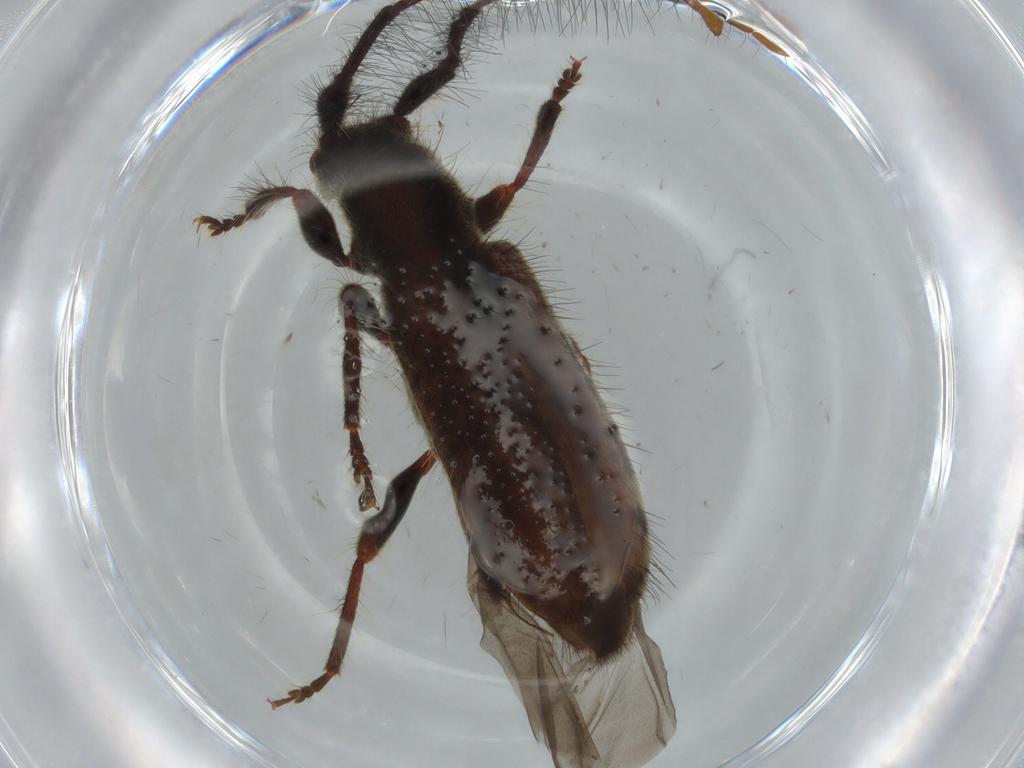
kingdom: Animalia
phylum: Arthropoda
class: Insecta
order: Coleoptera
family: Cerambycidae
